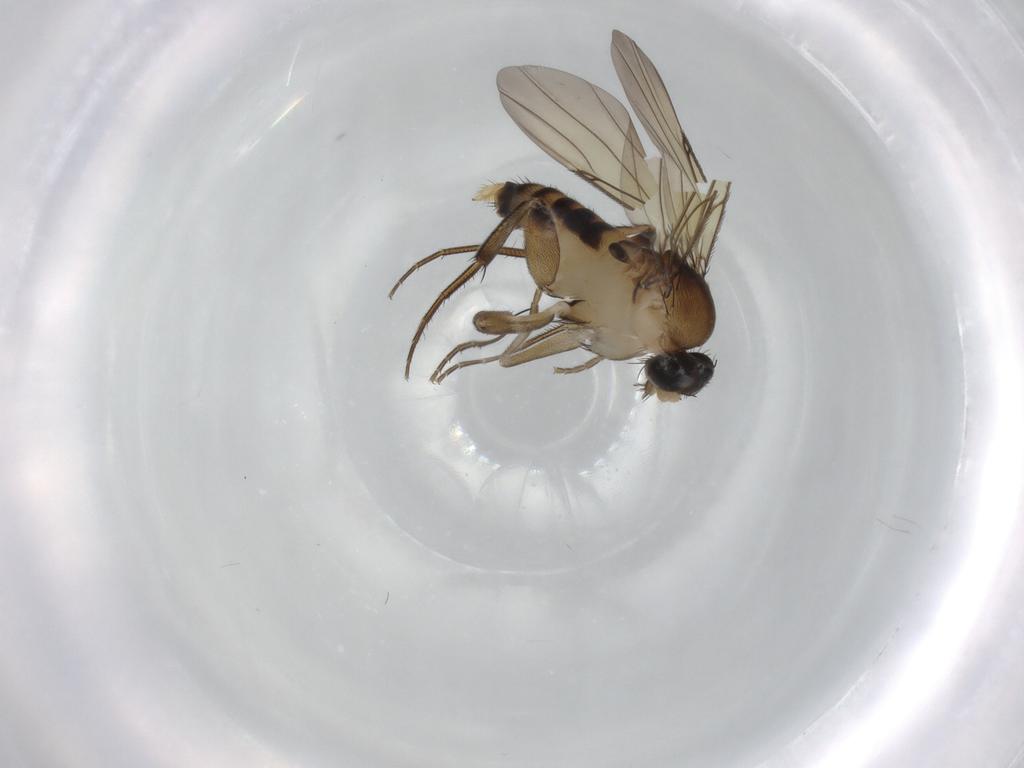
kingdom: Animalia
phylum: Arthropoda
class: Insecta
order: Diptera
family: Phoridae
